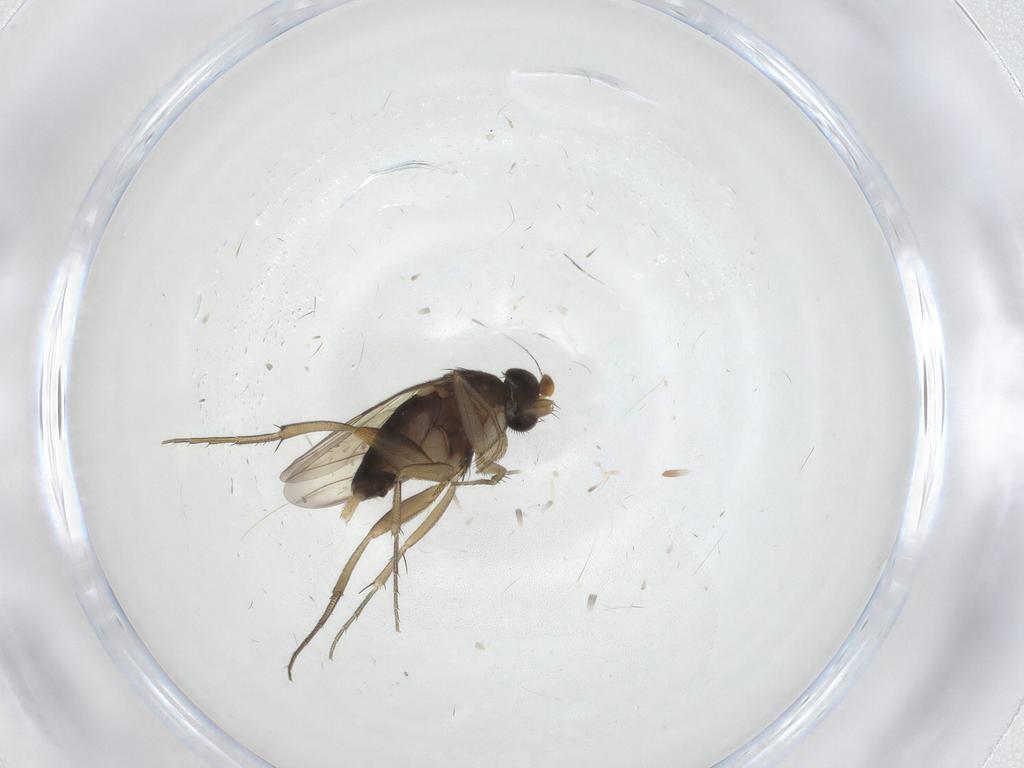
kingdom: Animalia
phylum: Arthropoda
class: Insecta
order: Diptera
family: Phoridae
